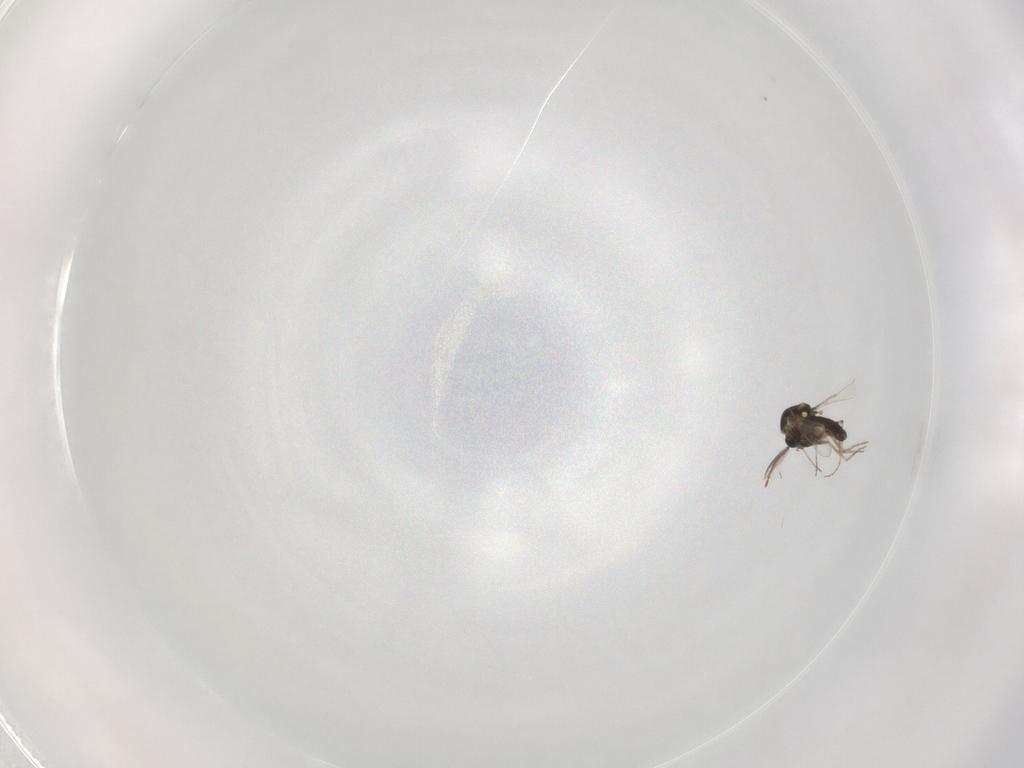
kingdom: Animalia
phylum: Arthropoda
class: Insecta
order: Diptera
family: Ceratopogonidae
